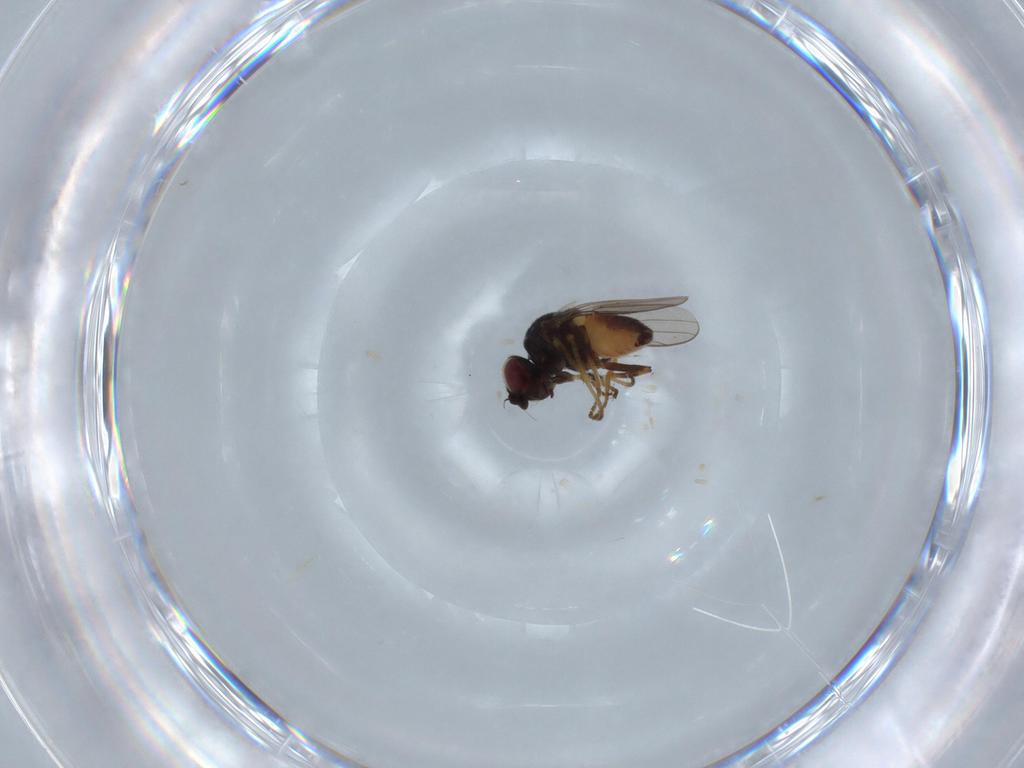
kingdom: Animalia
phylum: Arthropoda
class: Insecta
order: Diptera
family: Chloropidae
